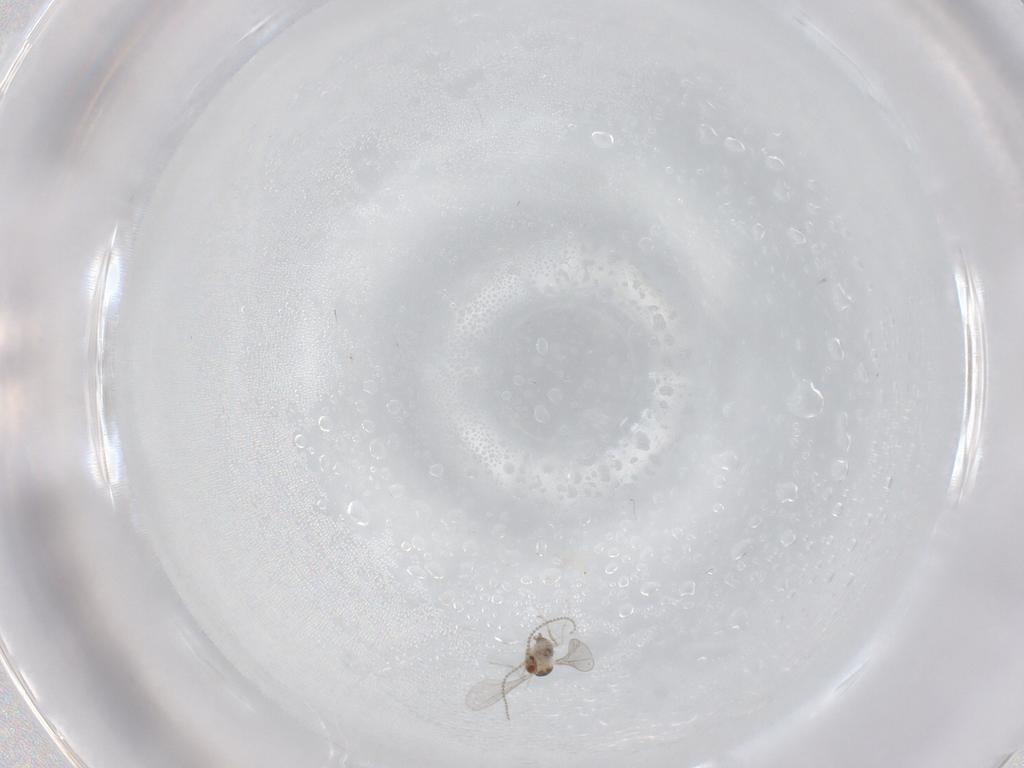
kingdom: Animalia
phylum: Arthropoda
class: Insecta
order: Diptera
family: Cecidomyiidae
